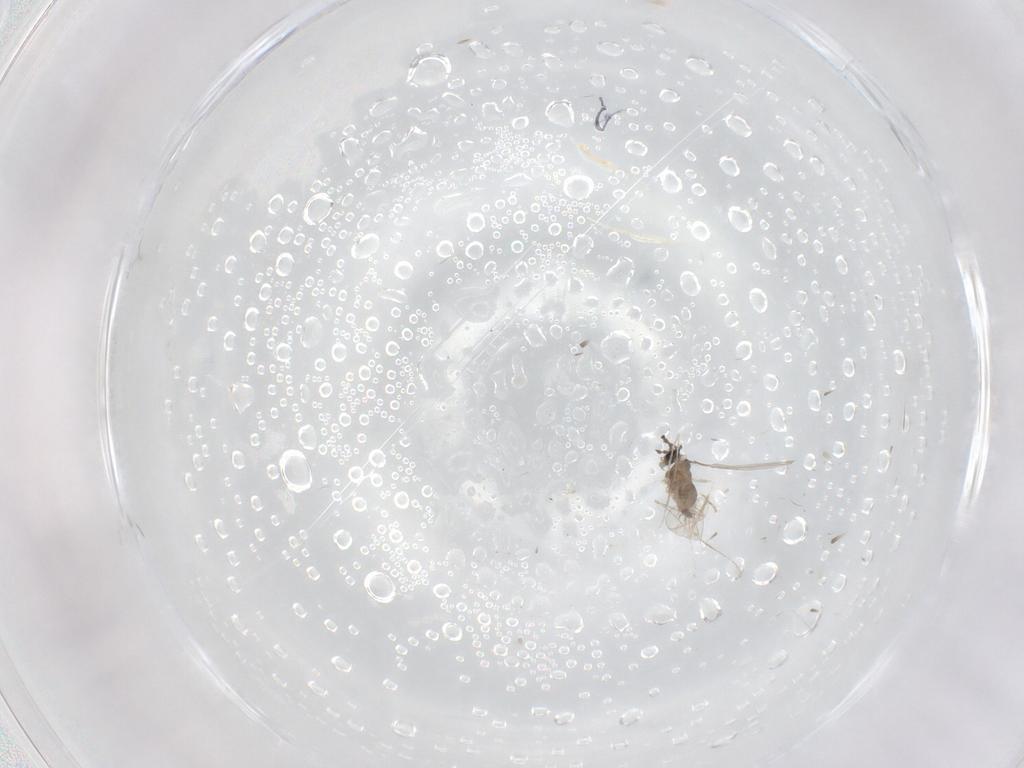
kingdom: Animalia
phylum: Arthropoda
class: Insecta
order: Diptera
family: Cecidomyiidae
